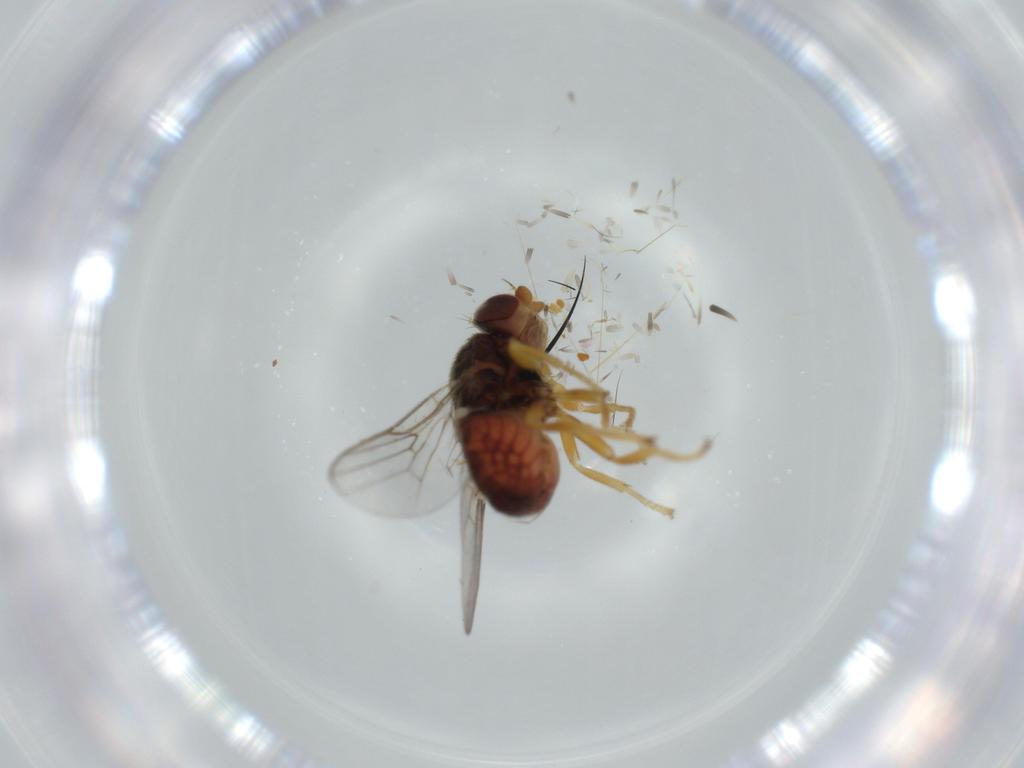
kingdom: Animalia
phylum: Arthropoda
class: Insecta
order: Diptera
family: Chloropidae
